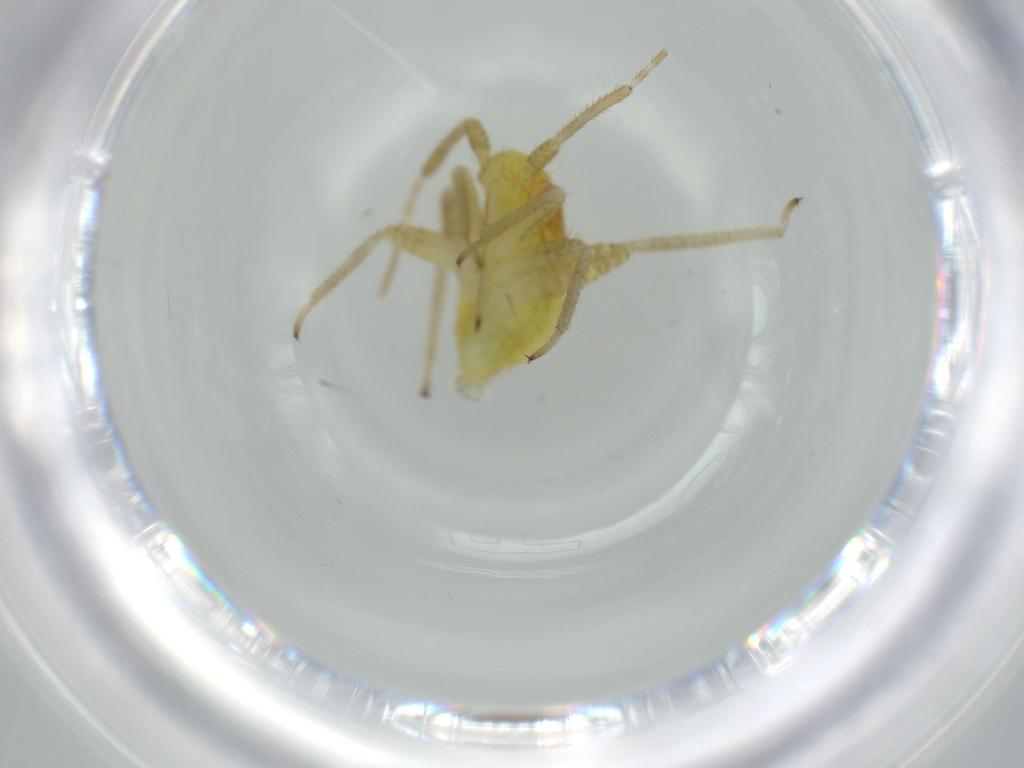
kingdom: Animalia
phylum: Arthropoda
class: Insecta
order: Hemiptera
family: Miridae
